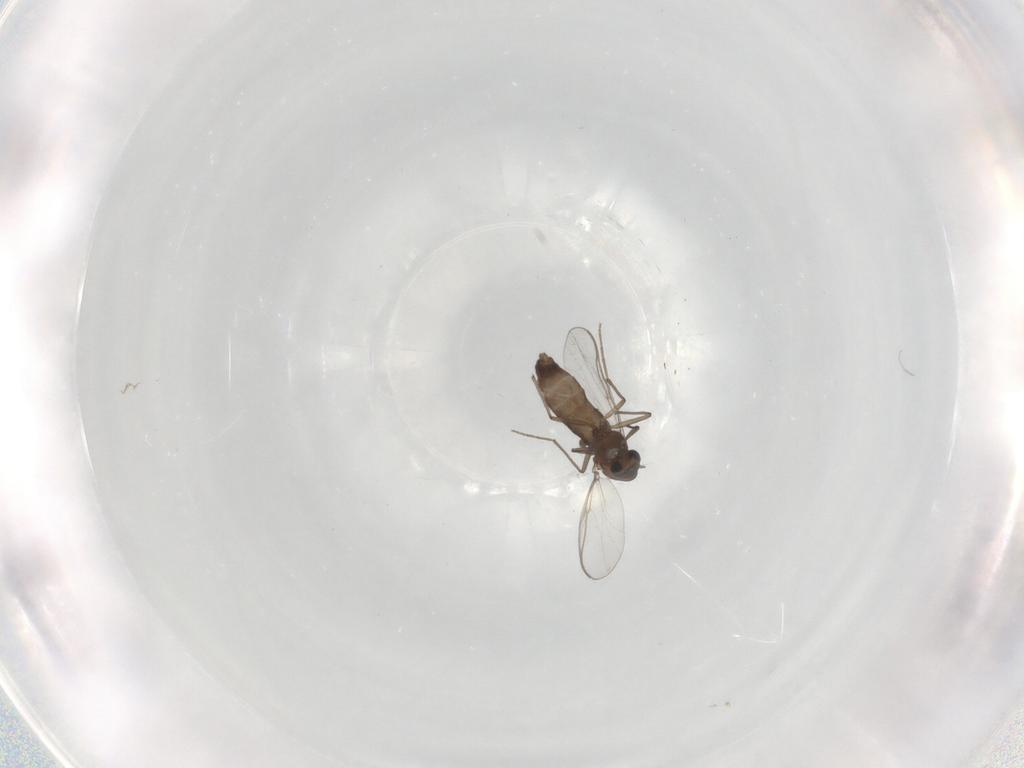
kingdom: Animalia
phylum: Arthropoda
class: Insecta
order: Diptera
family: Chironomidae
